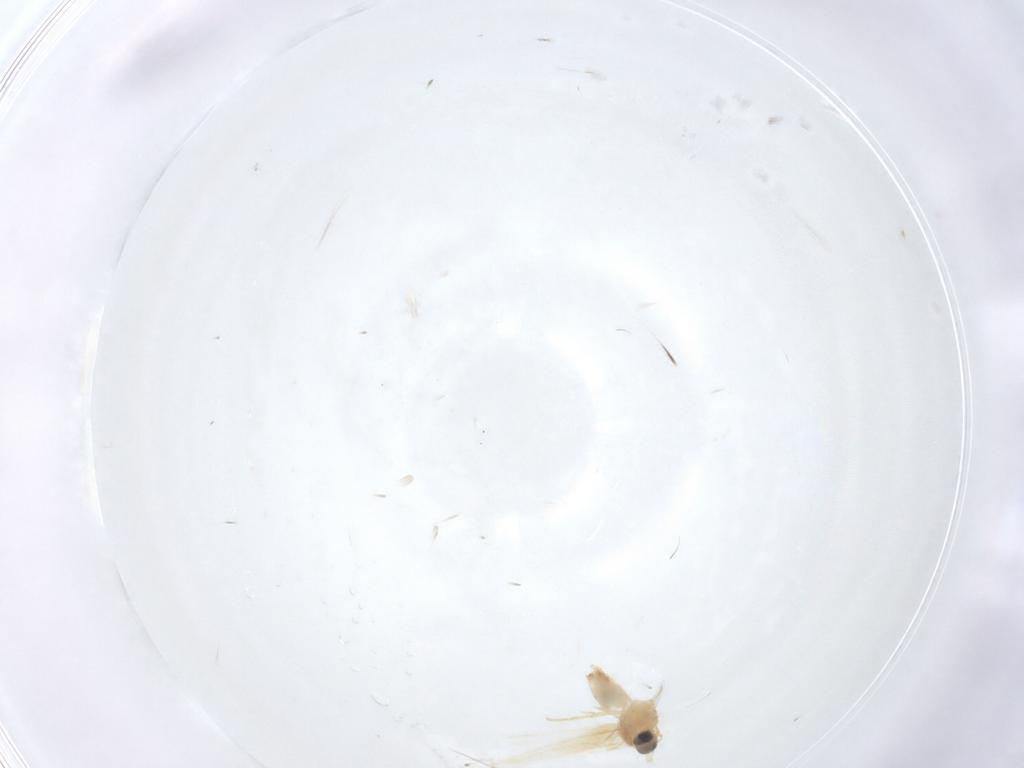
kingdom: Animalia
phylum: Arthropoda
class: Insecta
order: Lepidoptera
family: Crambidae
